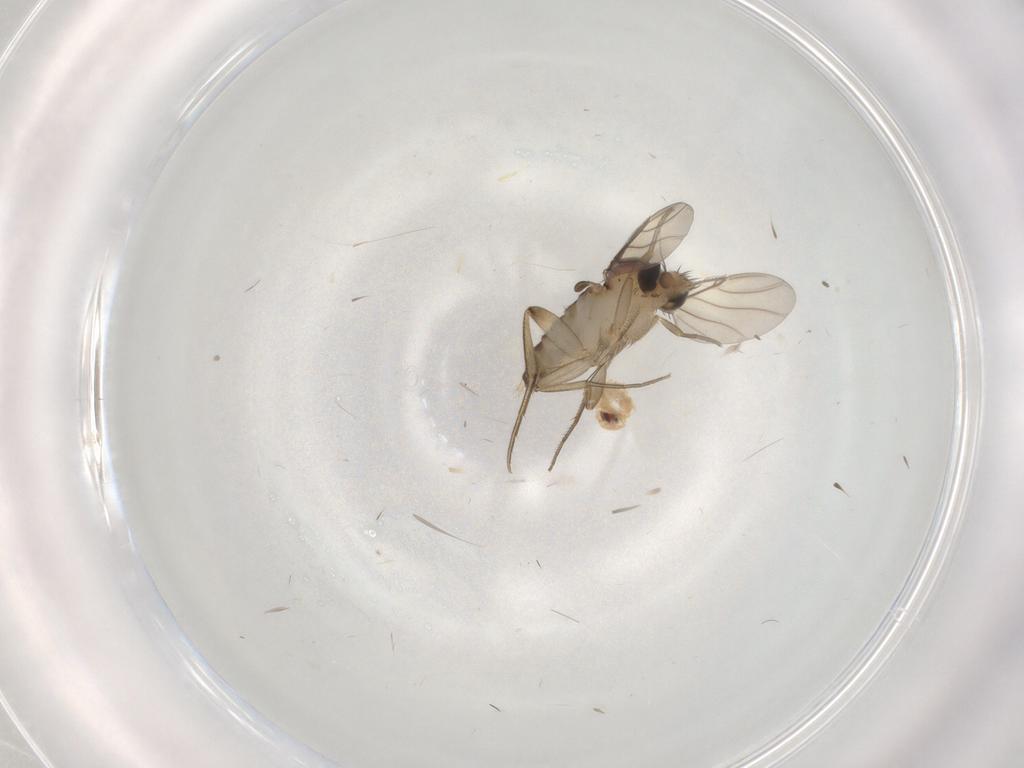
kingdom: Animalia
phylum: Arthropoda
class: Insecta
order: Diptera
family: Phoridae
